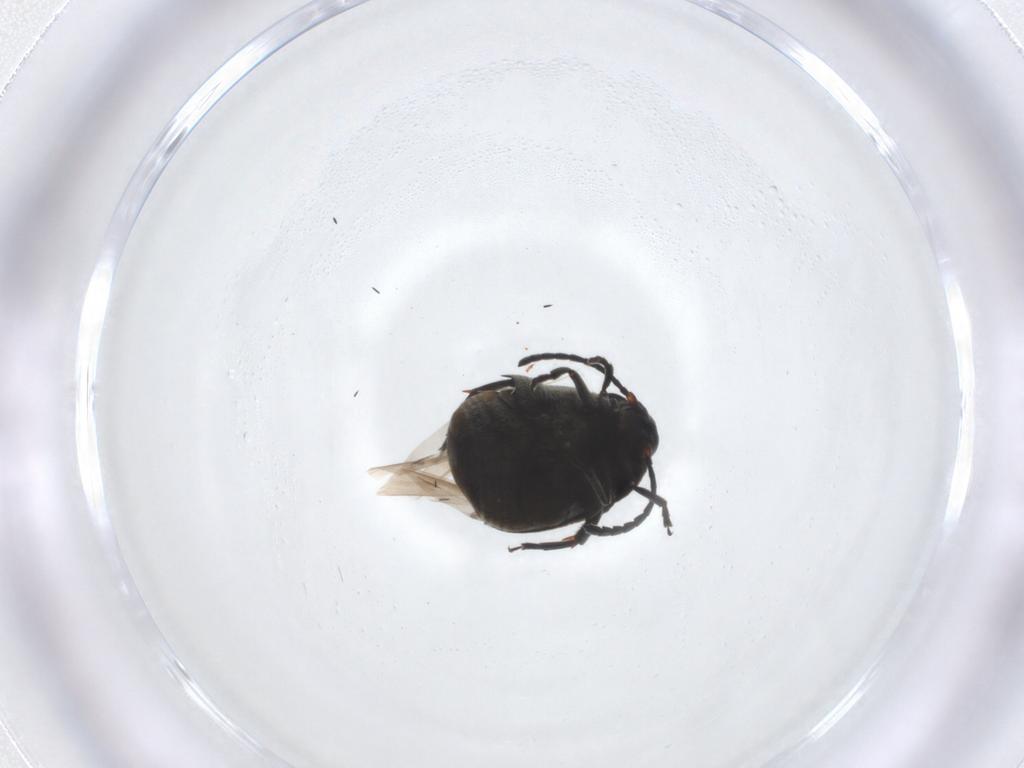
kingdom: Animalia
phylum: Arthropoda
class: Insecta
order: Coleoptera
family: Chrysomelidae
